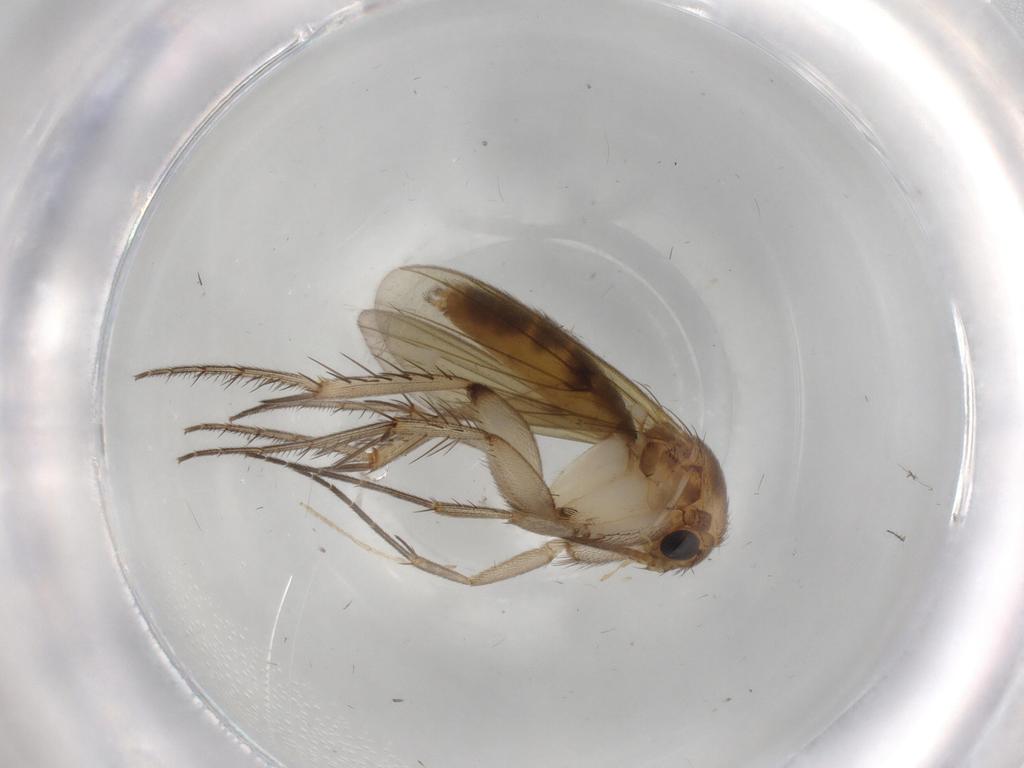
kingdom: Animalia
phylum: Arthropoda
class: Insecta
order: Diptera
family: Mycetophilidae
